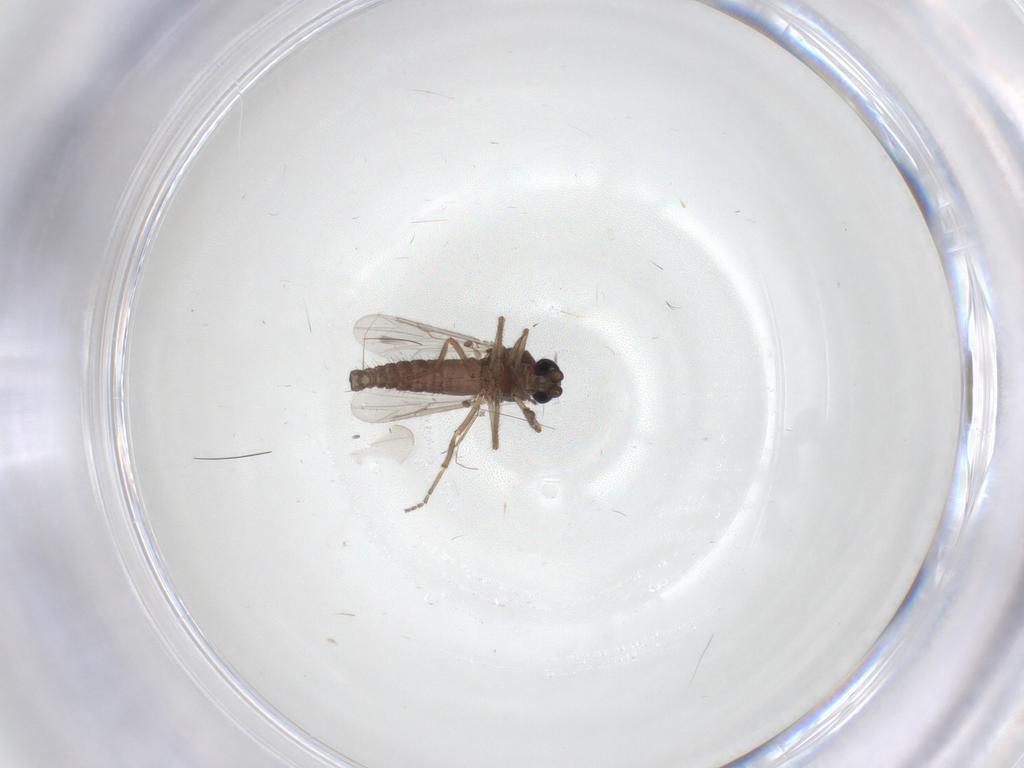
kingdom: Animalia
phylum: Arthropoda
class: Insecta
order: Diptera
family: Ceratopogonidae
